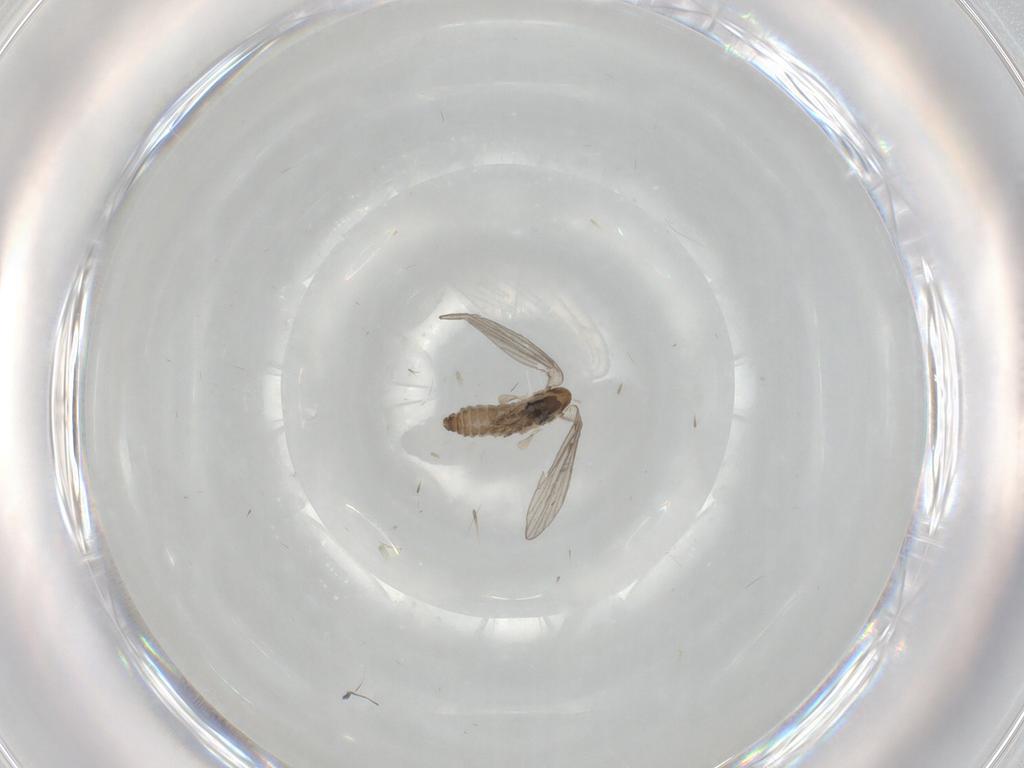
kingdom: Animalia
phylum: Arthropoda
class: Insecta
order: Diptera
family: Psychodidae
